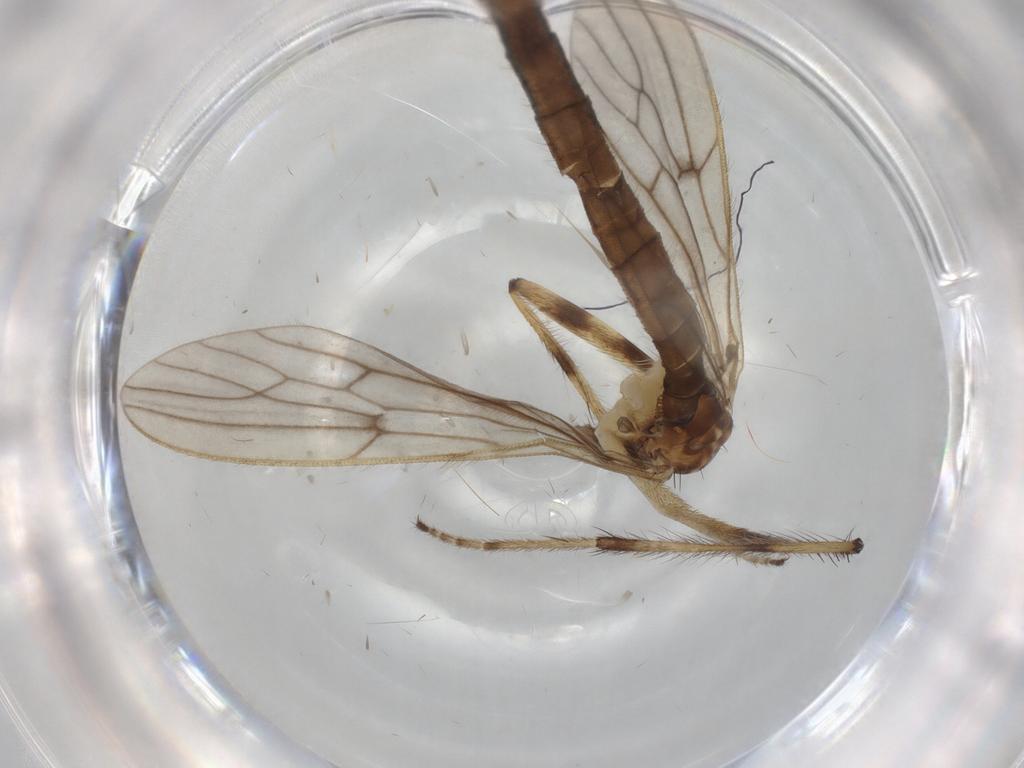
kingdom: Animalia
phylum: Arthropoda
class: Insecta
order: Diptera
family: Limoniidae
